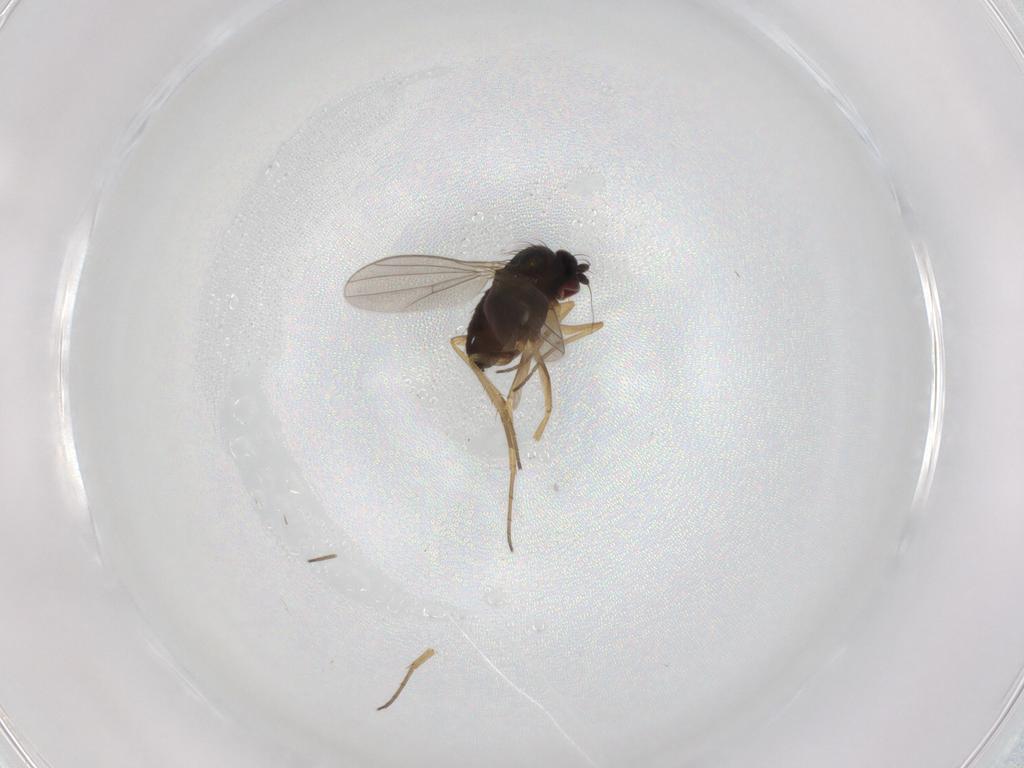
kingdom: Animalia
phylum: Arthropoda
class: Insecta
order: Diptera
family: Dolichopodidae
